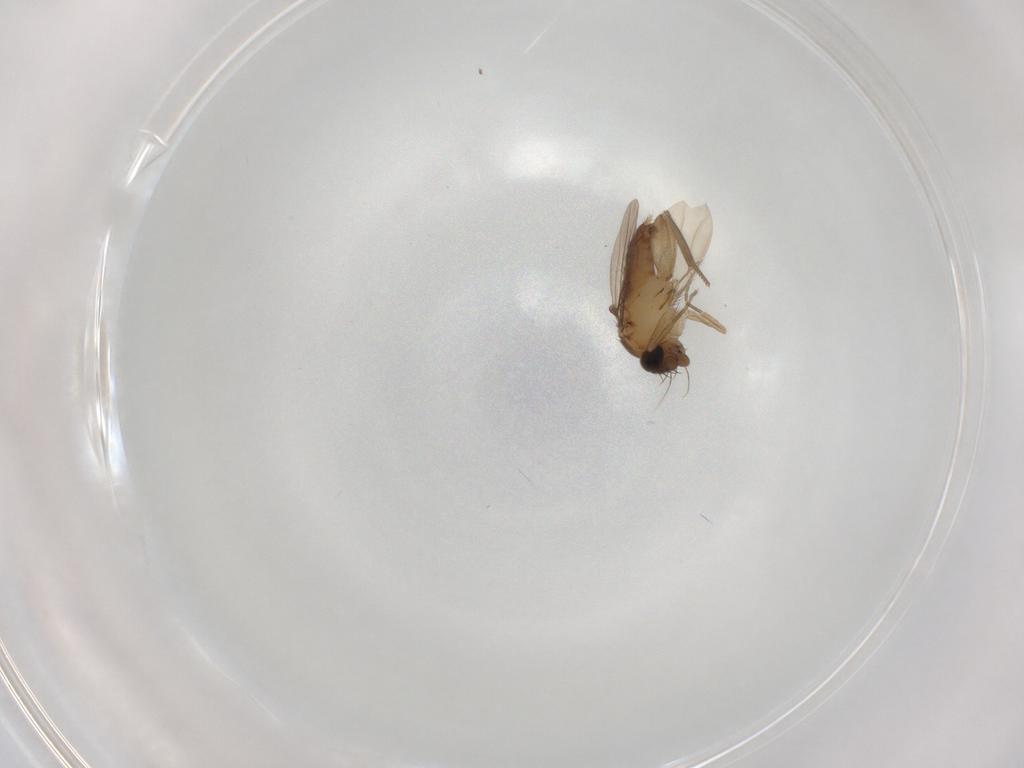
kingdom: Animalia
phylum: Arthropoda
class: Insecta
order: Diptera
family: Phoridae
